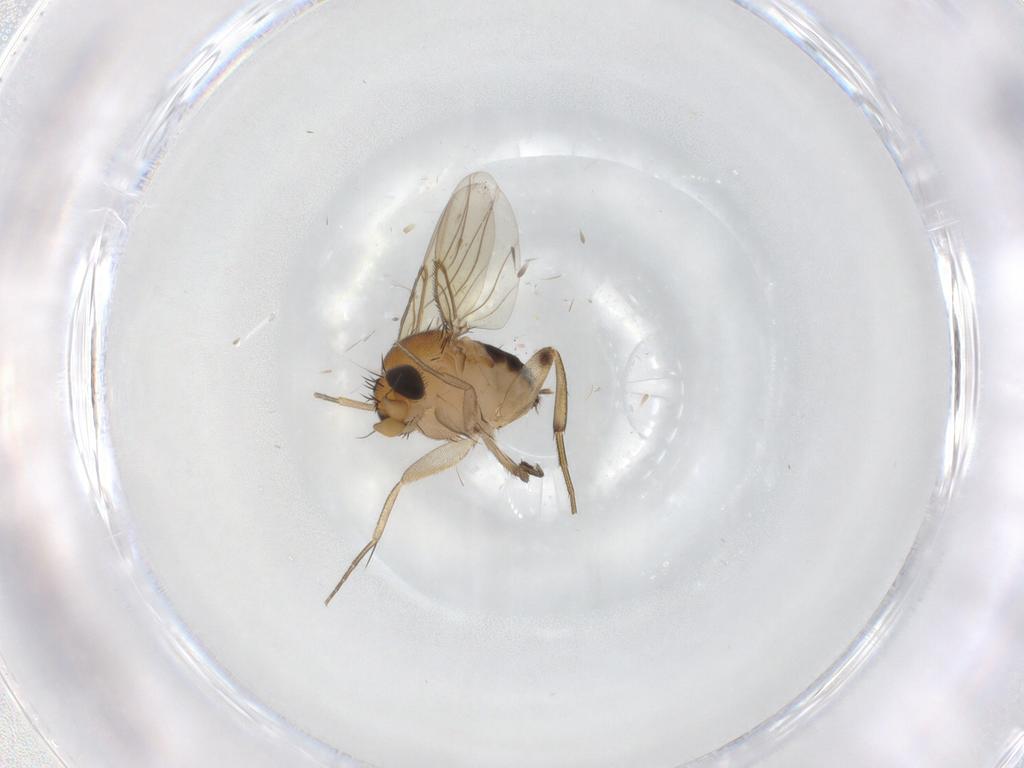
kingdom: Animalia
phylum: Arthropoda
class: Insecta
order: Diptera
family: Cecidomyiidae
